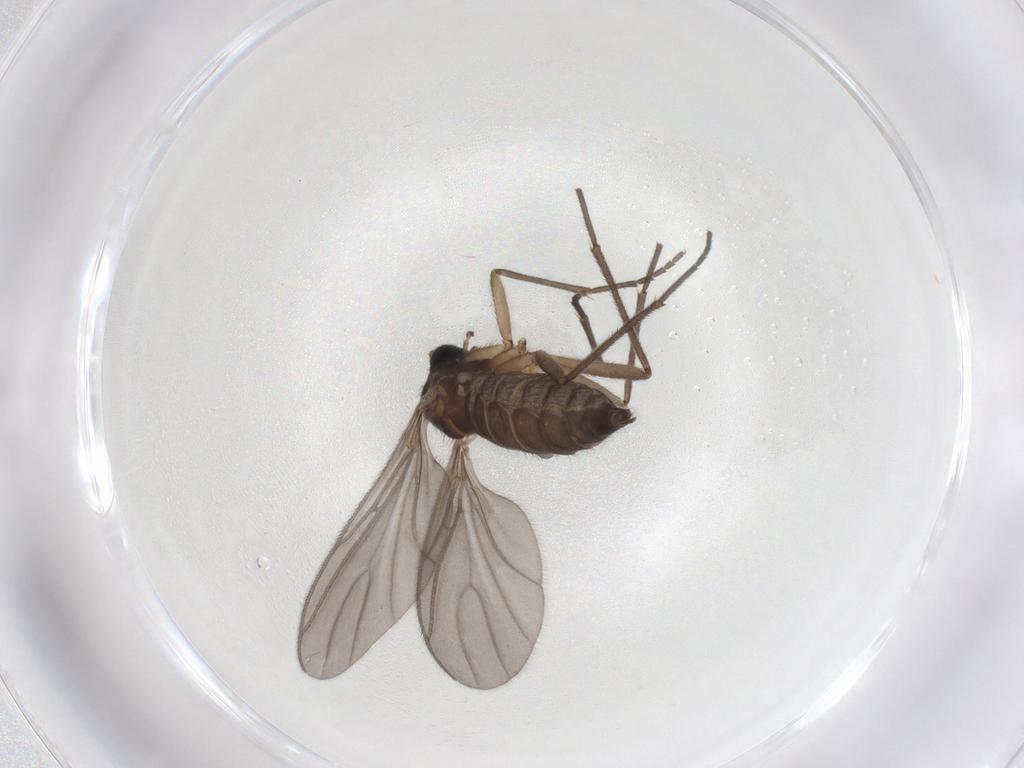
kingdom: Animalia
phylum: Arthropoda
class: Insecta
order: Diptera
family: Sciaridae
